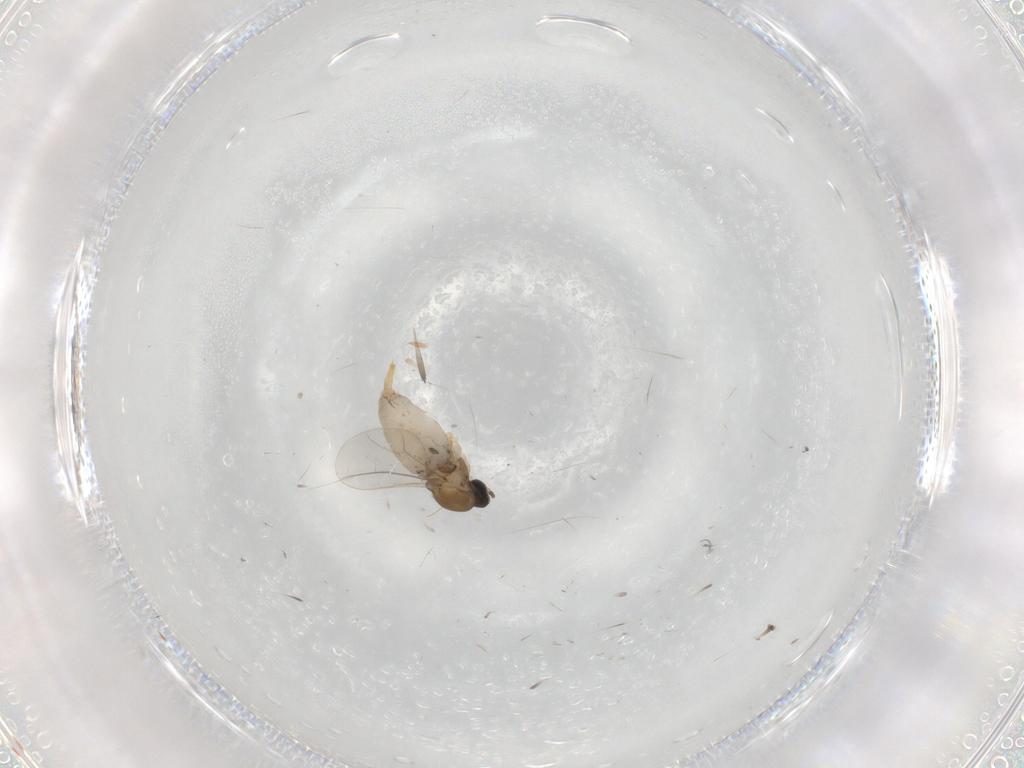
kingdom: Animalia
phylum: Arthropoda
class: Insecta
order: Diptera
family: Cecidomyiidae
